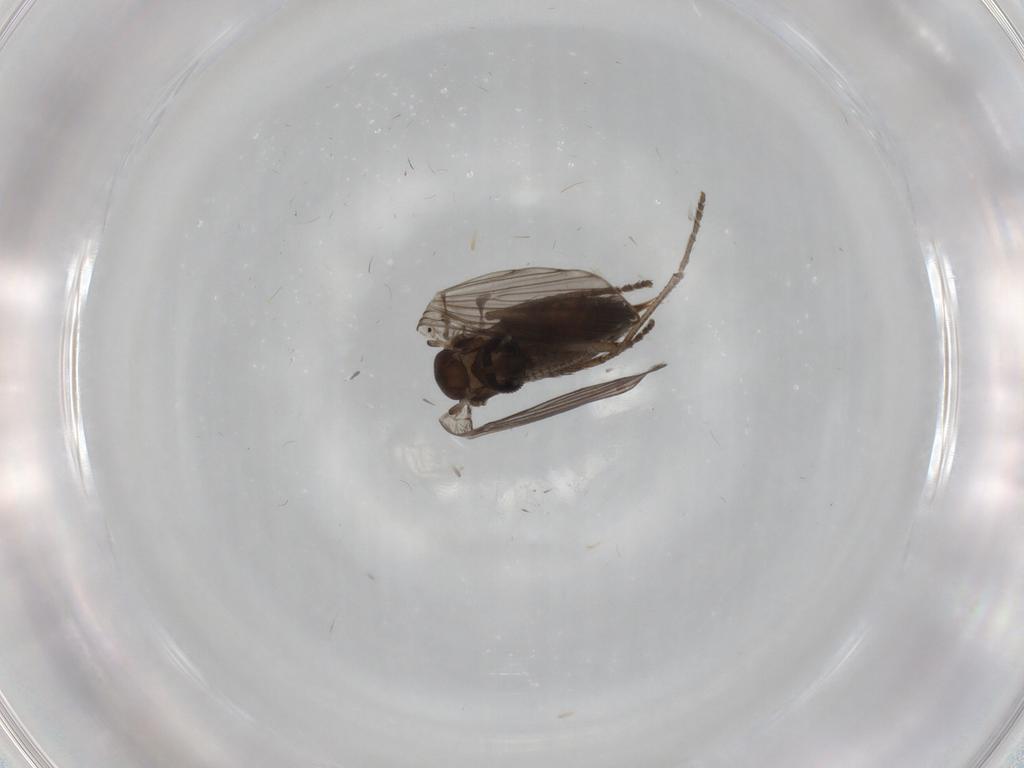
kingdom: Animalia
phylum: Arthropoda
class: Insecta
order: Diptera
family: Psychodidae
